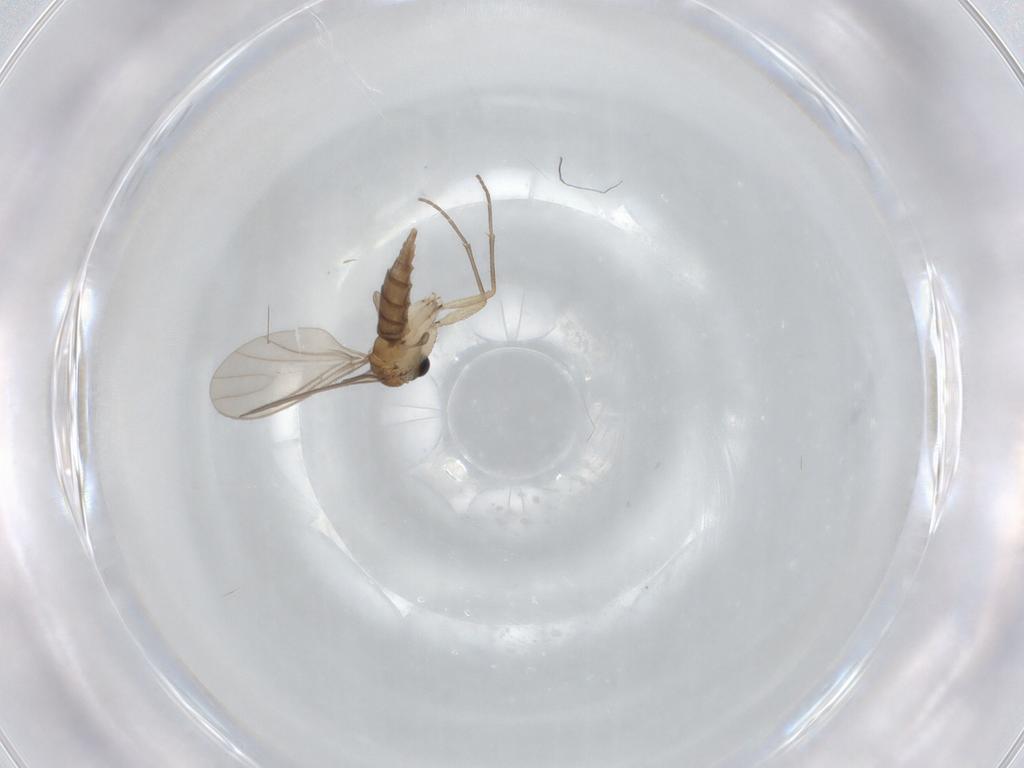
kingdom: Animalia
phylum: Arthropoda
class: Insecta
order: Diptera
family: Sciaridae
